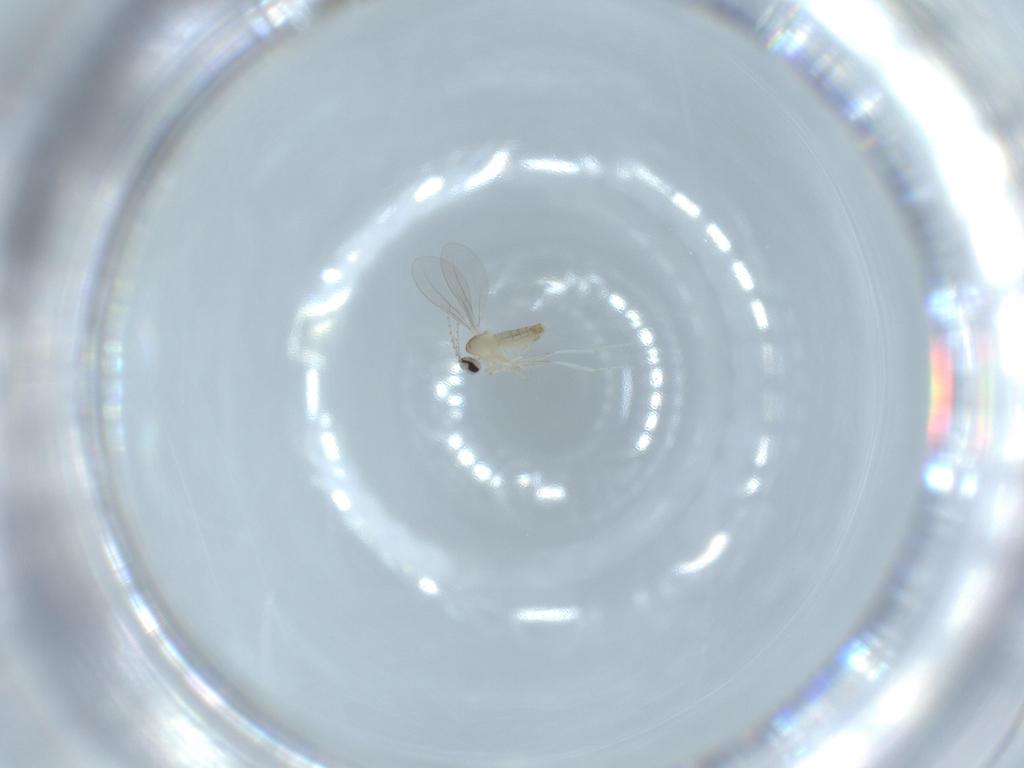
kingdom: Animalia
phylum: Arthropoda
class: Insecta
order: Diptera
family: Cecidomyiidae
